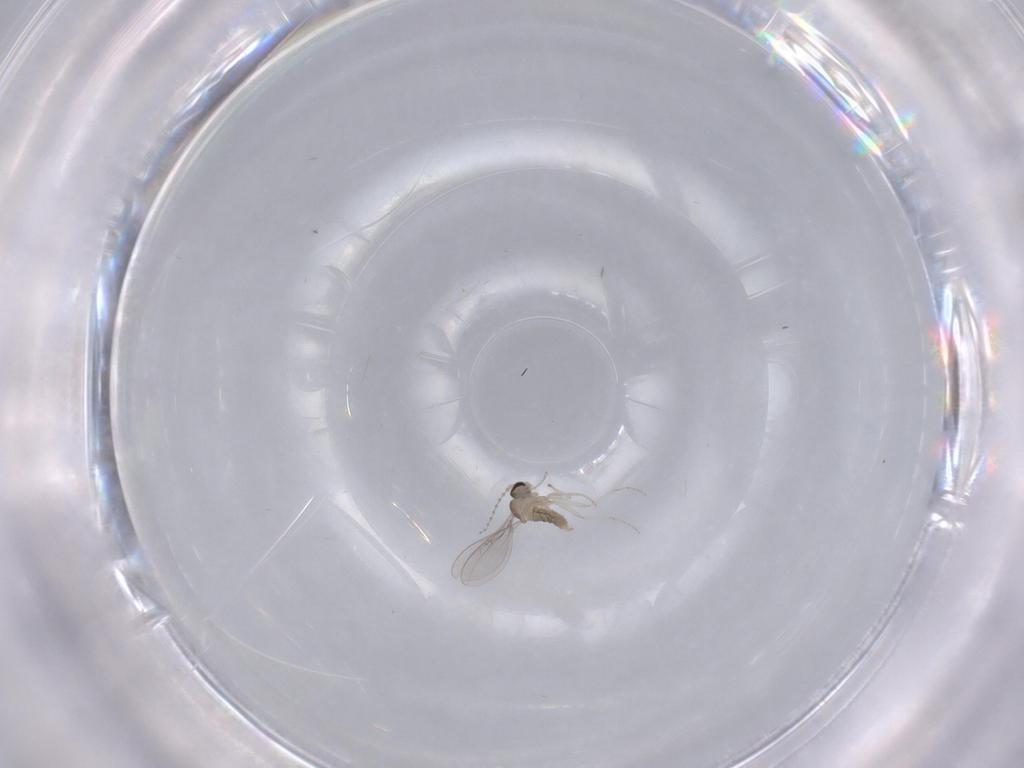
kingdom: Animalia
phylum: Arthropoda
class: Insecta
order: Diptera
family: Cecidomyiidae
